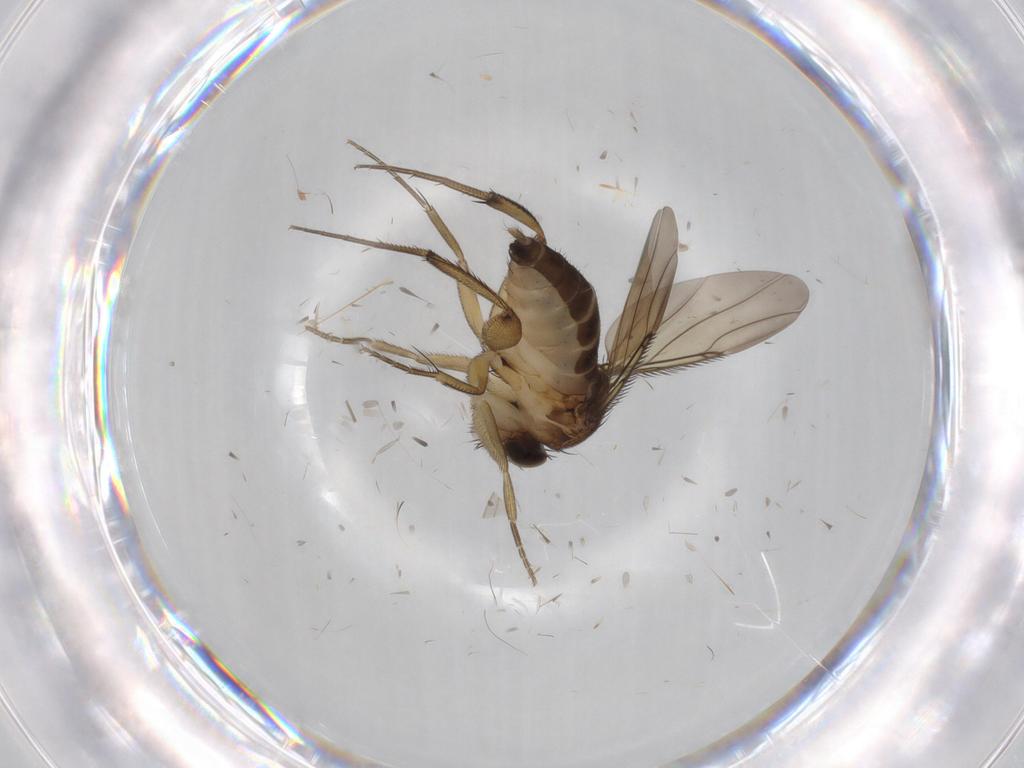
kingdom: Animalia
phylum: Arthropoda
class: Insecta
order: Diptera
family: Phoridae
